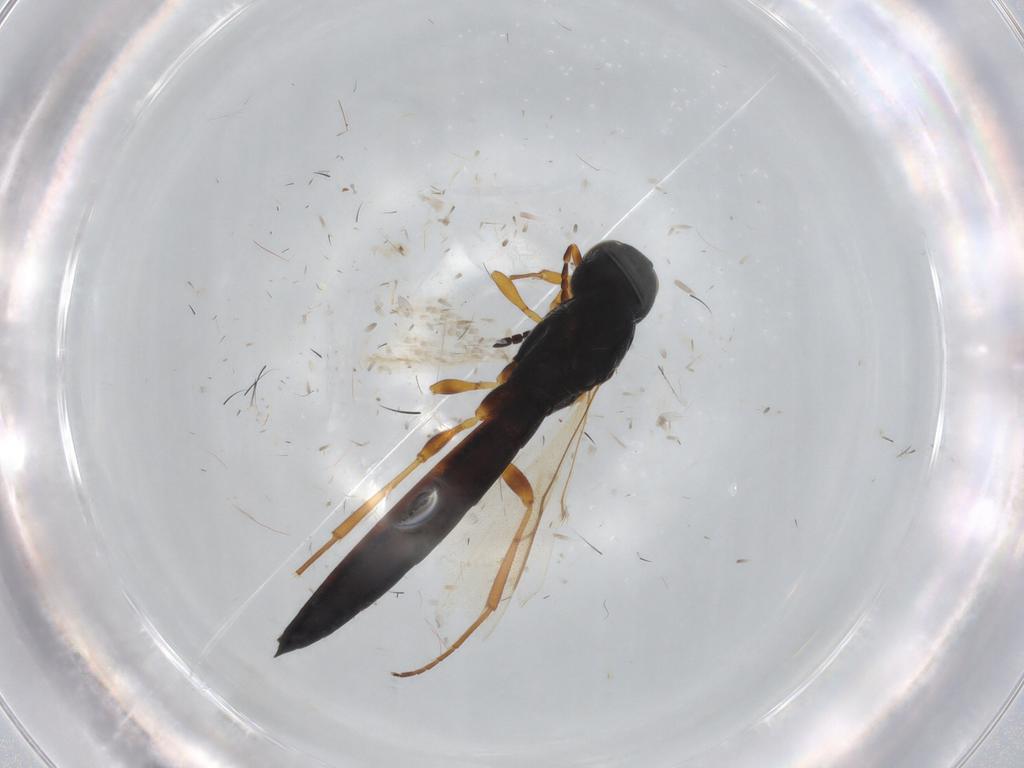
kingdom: Animalia
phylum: Arthropoda
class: Insecta
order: Hymenoptera
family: Scelionidae
